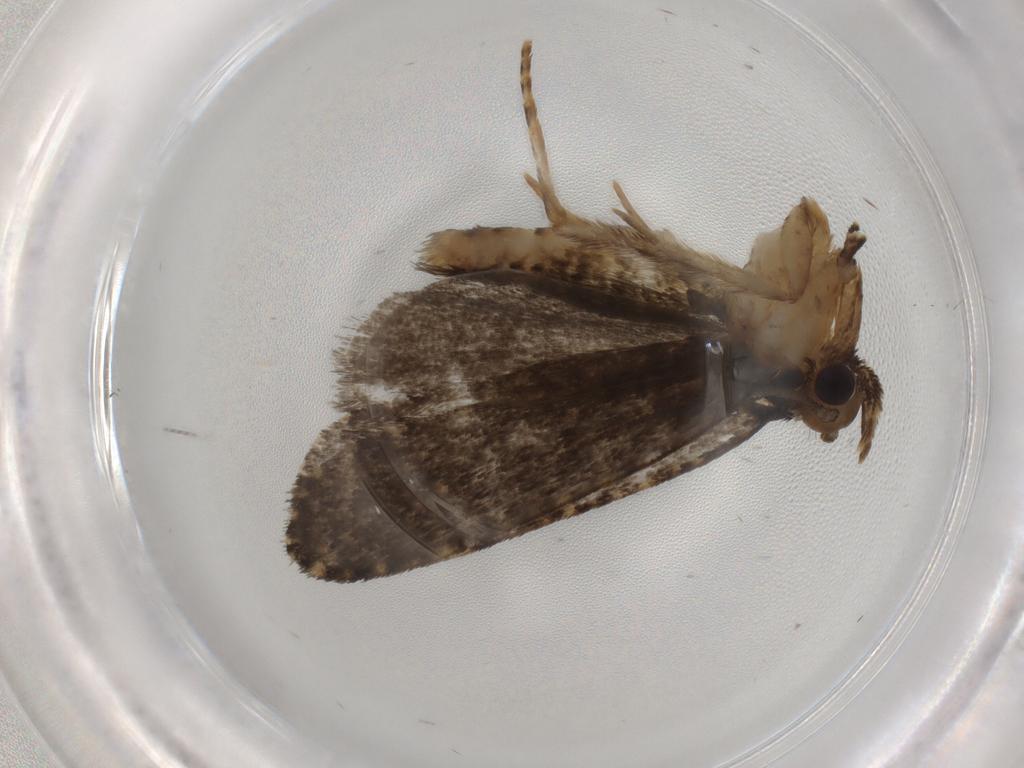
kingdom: Animalia
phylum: Arthropoda
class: Insecta
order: Lepidoptera
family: Tineidae
